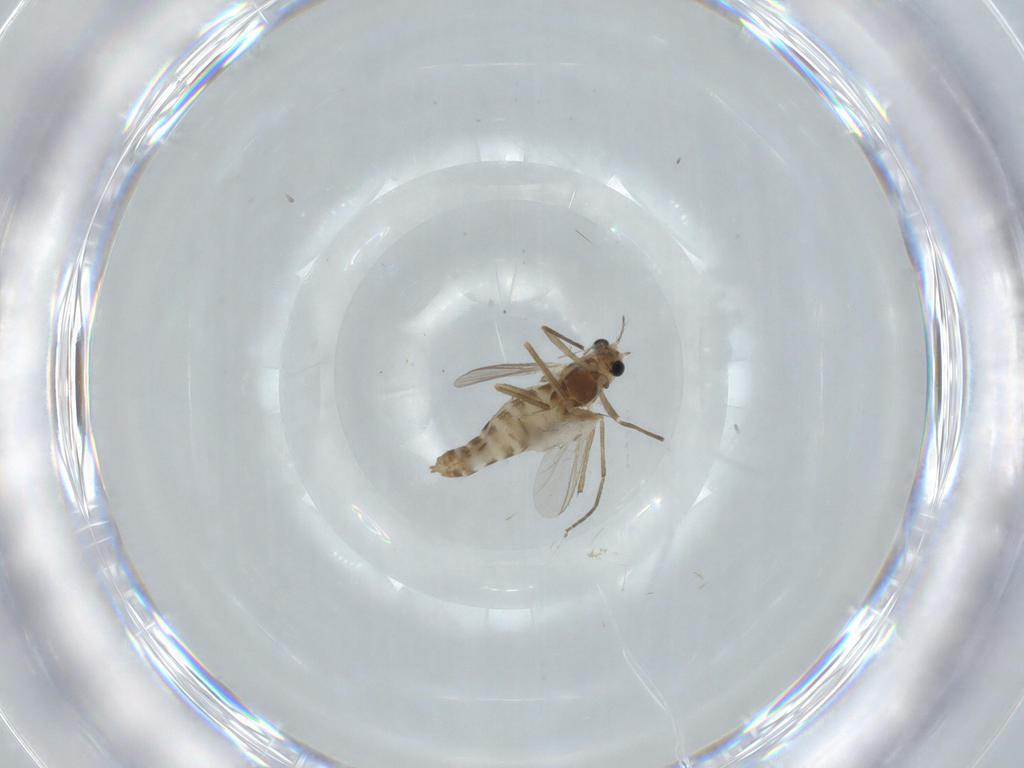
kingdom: Animalia
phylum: Arthropoda
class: Insecta
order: Diptera
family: Chironomidae
